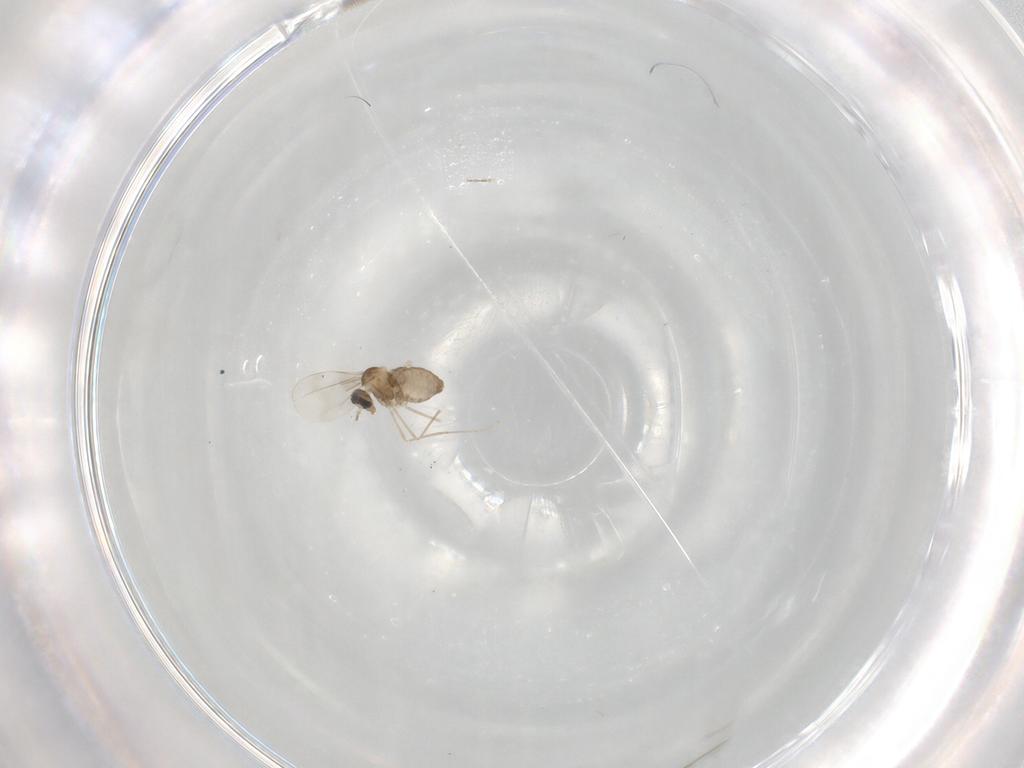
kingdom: Animalia
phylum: Arthropoda
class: Insecta
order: Diptera
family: Cecidomyiidae
